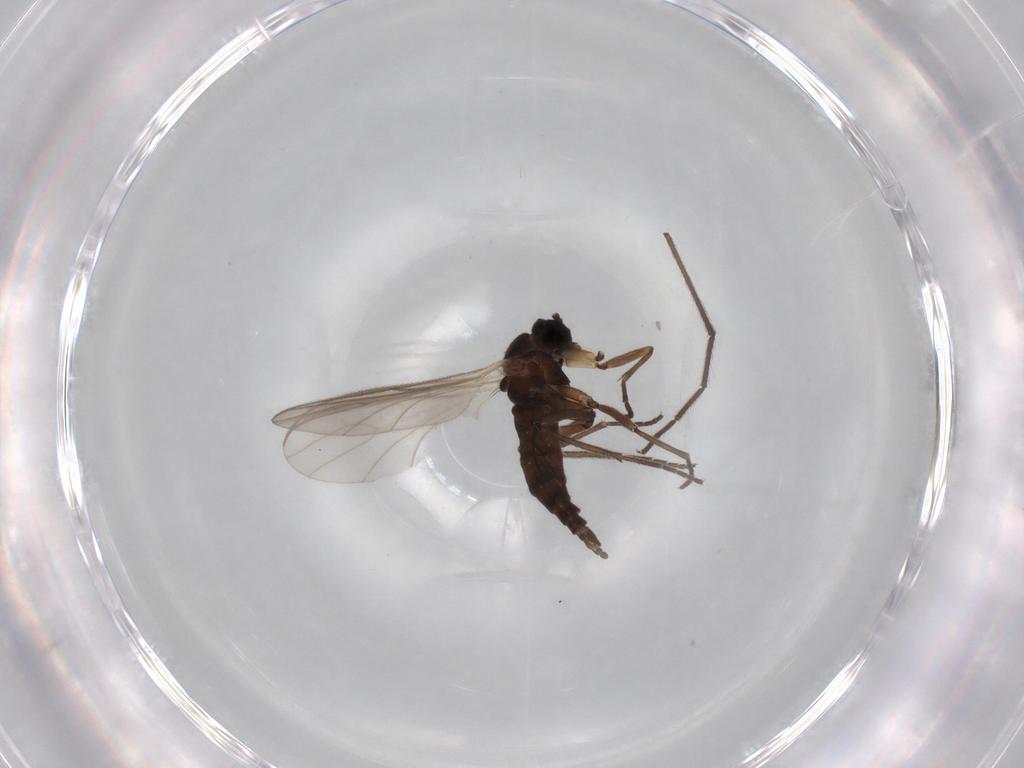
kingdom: Animalia
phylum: Arthropoda
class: Insecta
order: Diptera
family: Sciaridae
